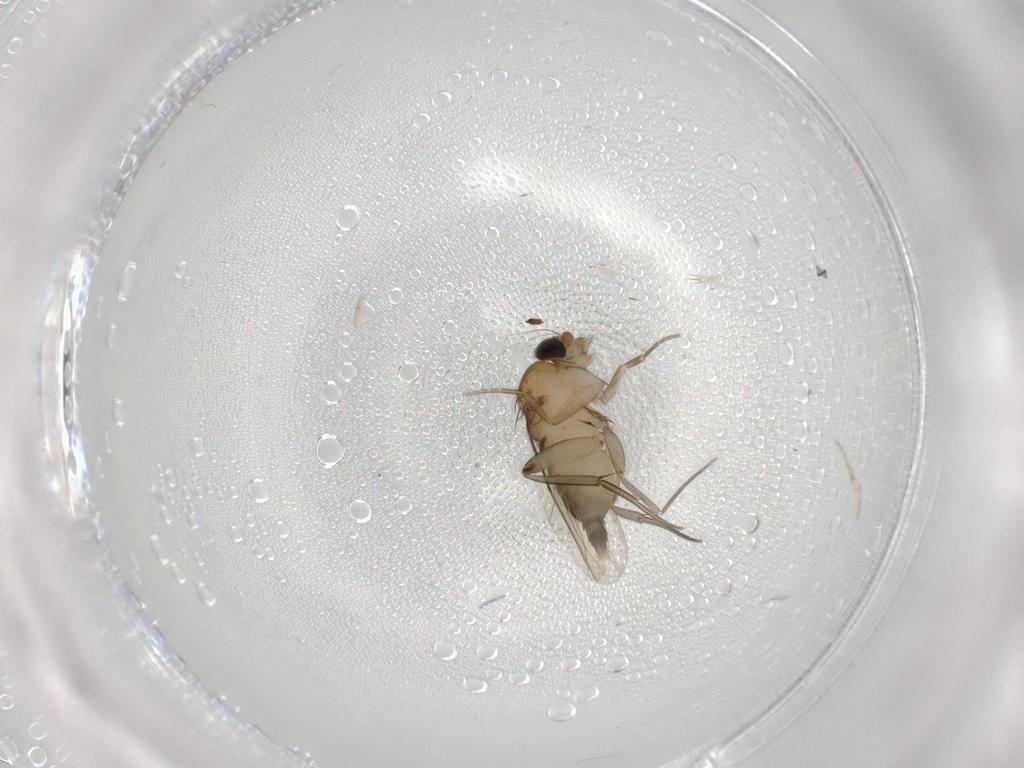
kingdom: Animalia
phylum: Arthropoda
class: Insecta
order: Diptera
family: Phoridae
